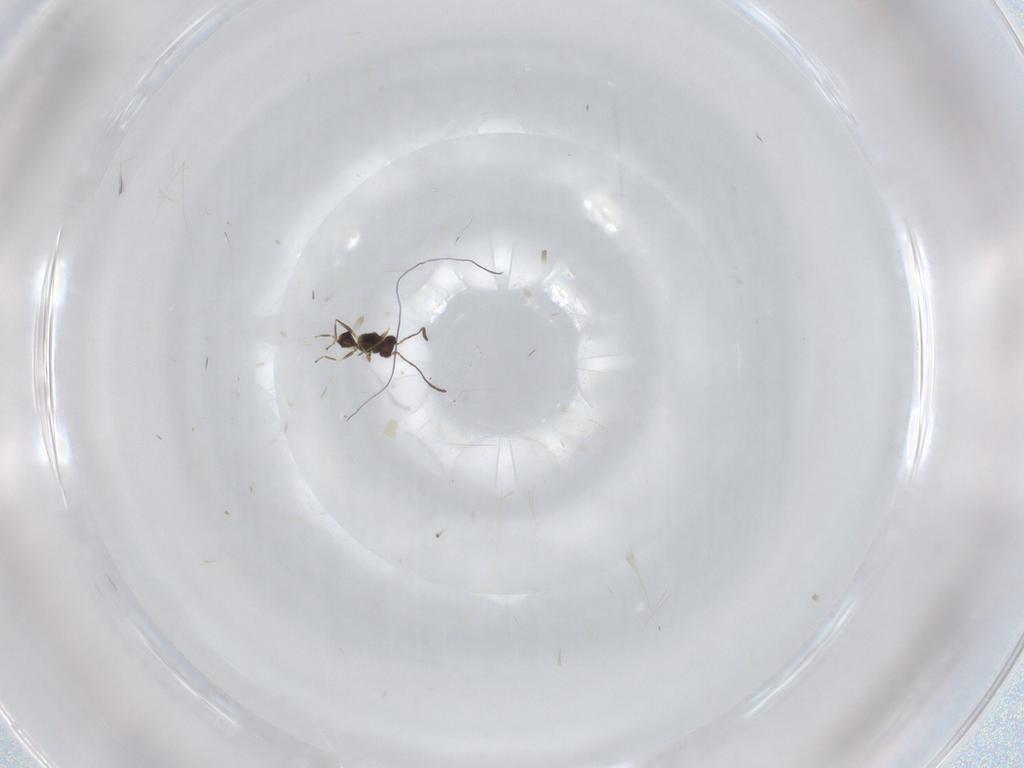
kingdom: Animalia
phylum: Arthropoda
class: Insecta
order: Hymenoptera
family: Mymaridae
